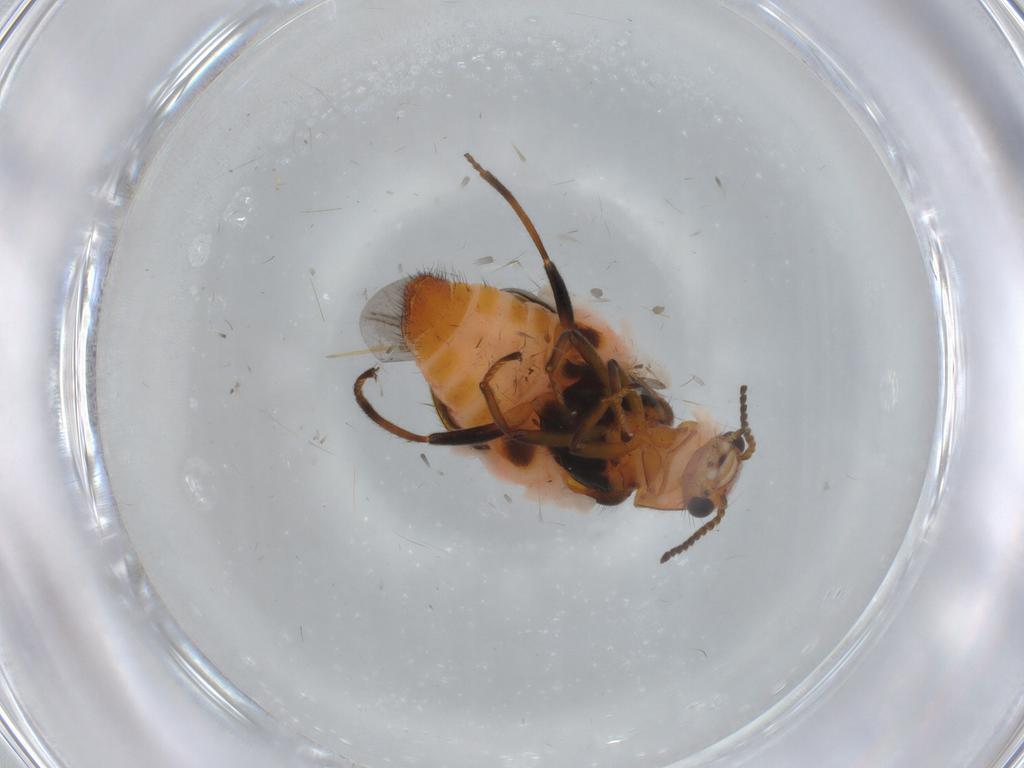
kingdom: Animalia
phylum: Arthropoda
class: Insecta
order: Coleoptera
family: Melyridae
